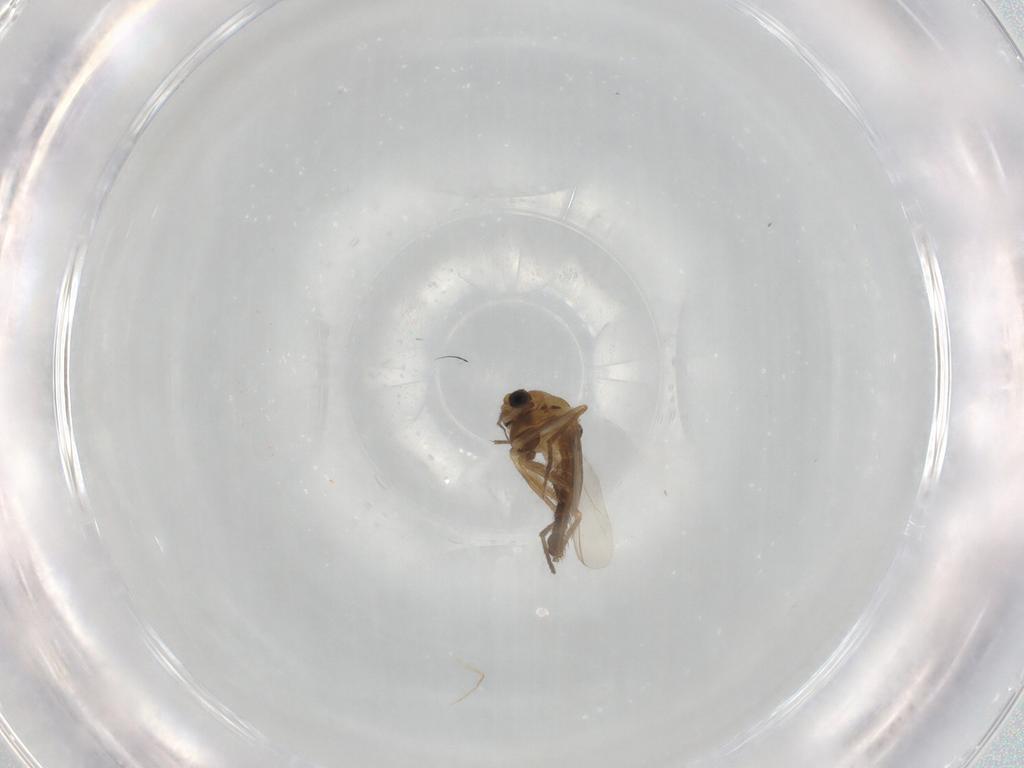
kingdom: Animalia
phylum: Arthropoda
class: Insecta
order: Diptera
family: Chironomidae
